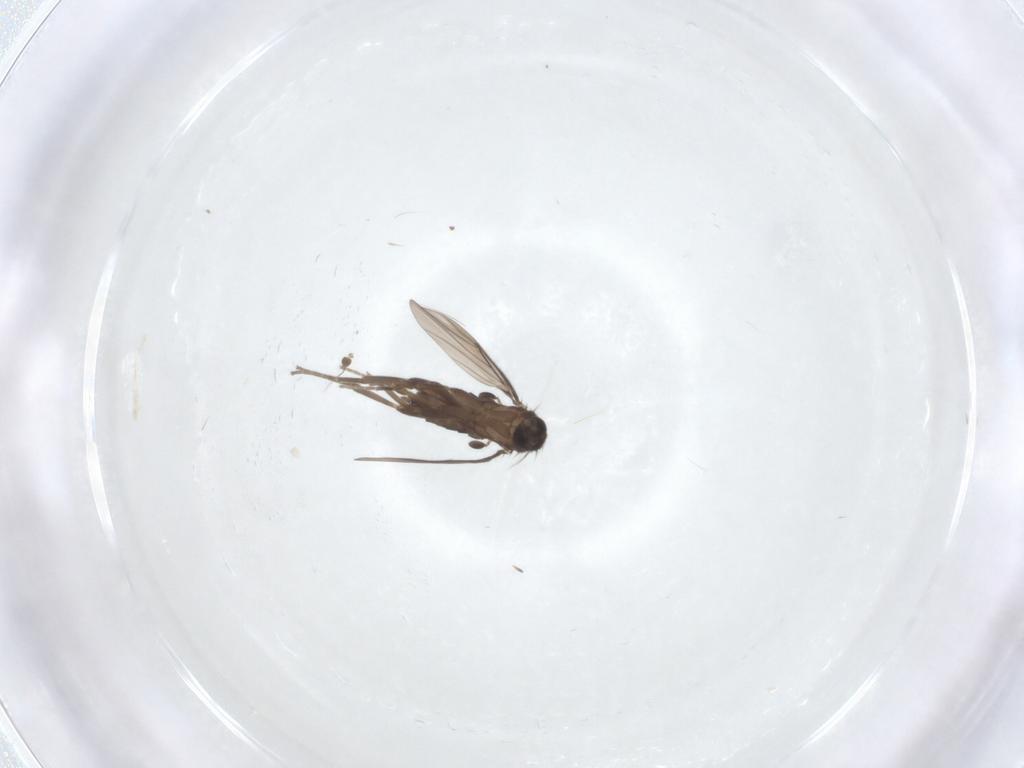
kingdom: Animalia
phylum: Arthropoda
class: Insecta
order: Diptera
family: Phoridae
